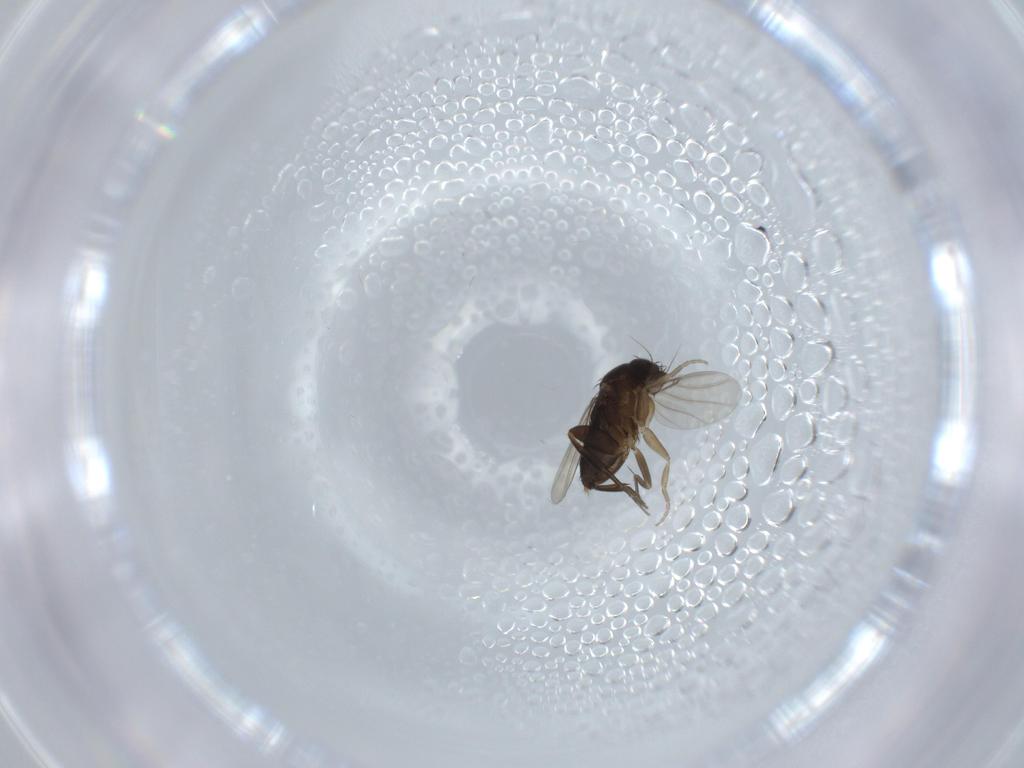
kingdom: Animalia
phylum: Arthropoda
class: Insecta
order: Diptera
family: Phoridae
